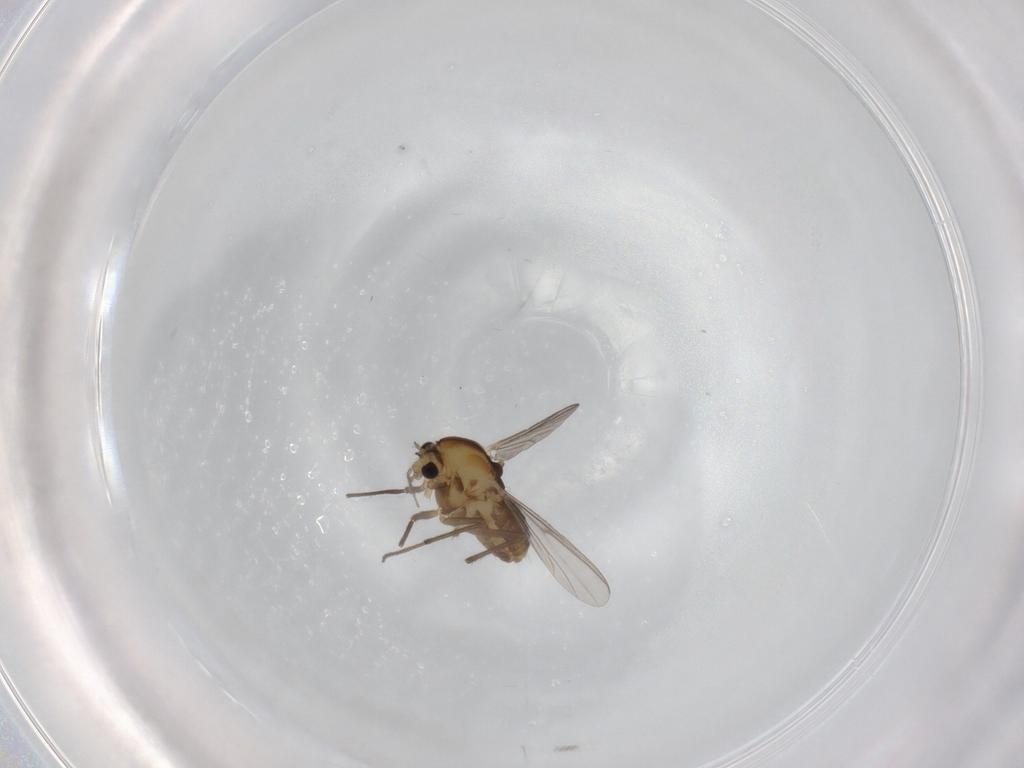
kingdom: Animalia
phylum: Arthropoda
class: Insecta
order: Diptera
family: Chironomidae
